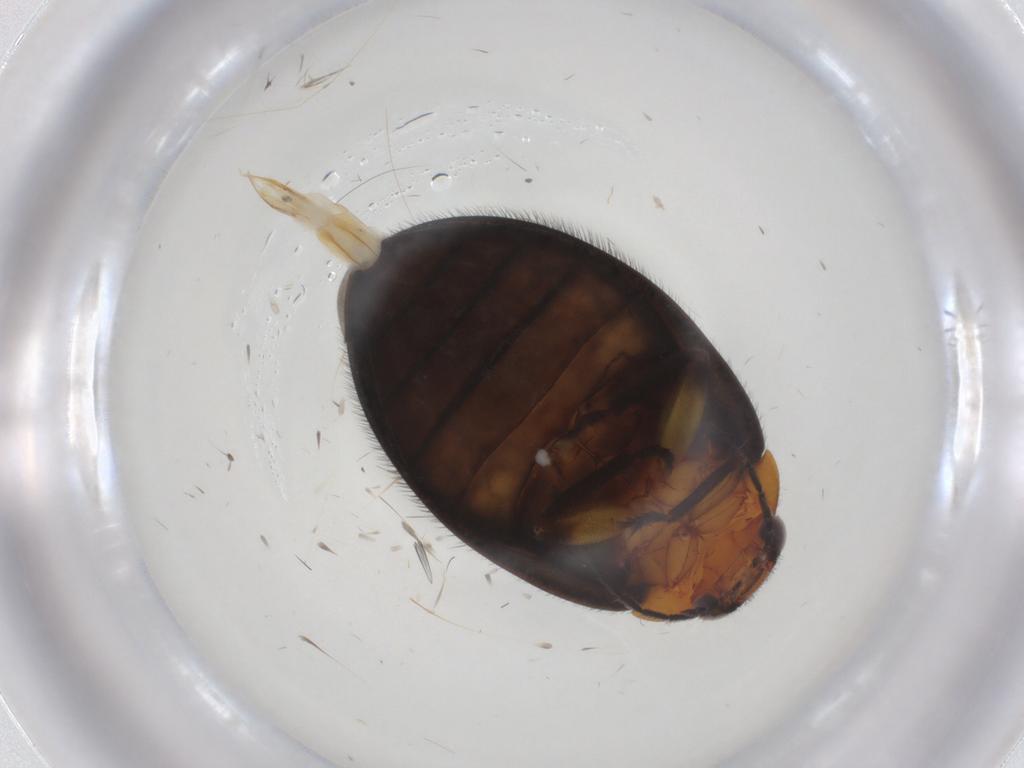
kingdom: Animalia
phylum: Arthropoda
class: Insecta
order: Coleoptera
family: Scirtidae
